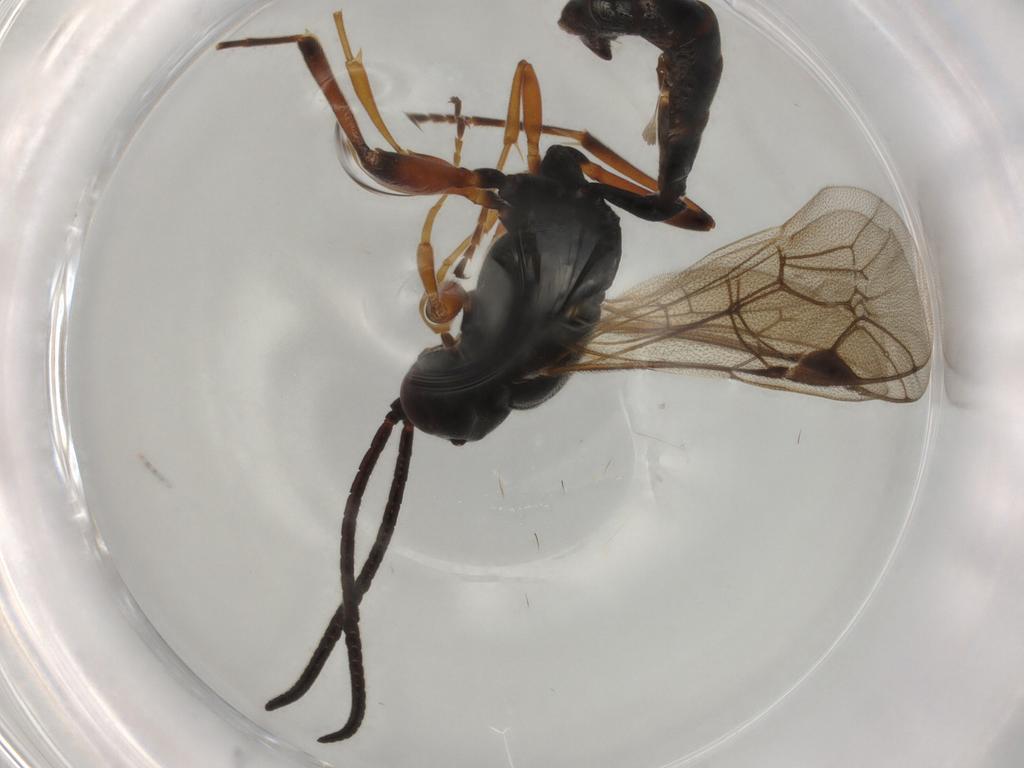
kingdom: Animalia
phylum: Arthropoda
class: Insecta
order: Hymenoptera
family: Ichneumonidae
